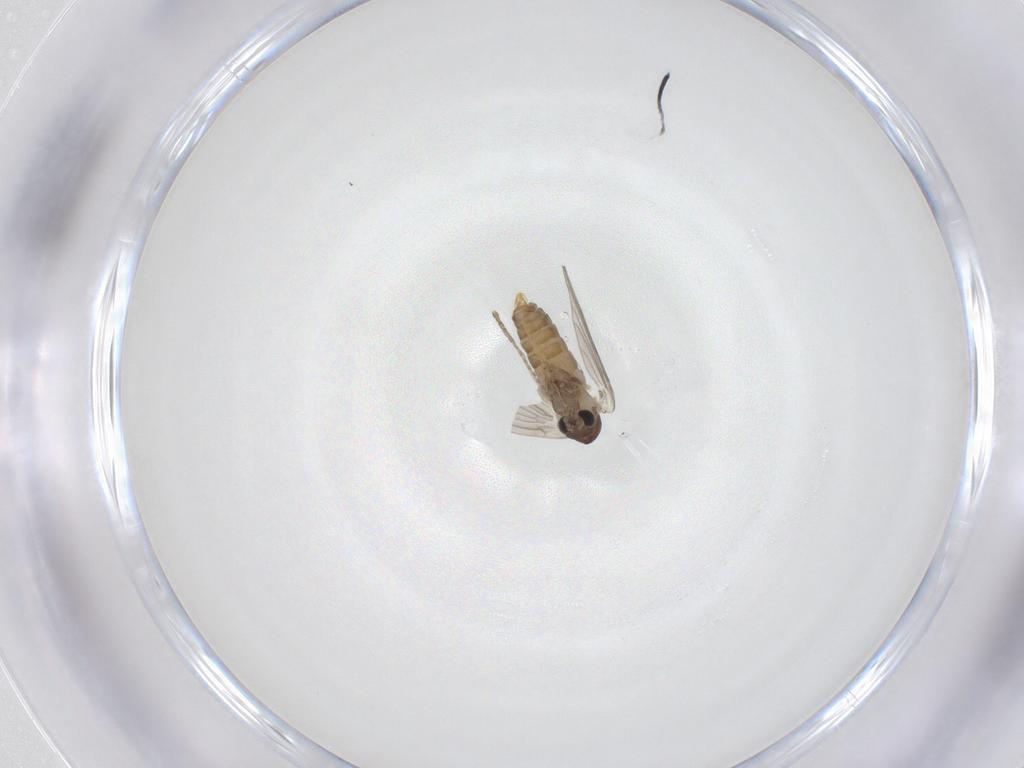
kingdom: Animalia
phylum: Arthropoda
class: Insecta
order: Diptera
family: Psychodidae
